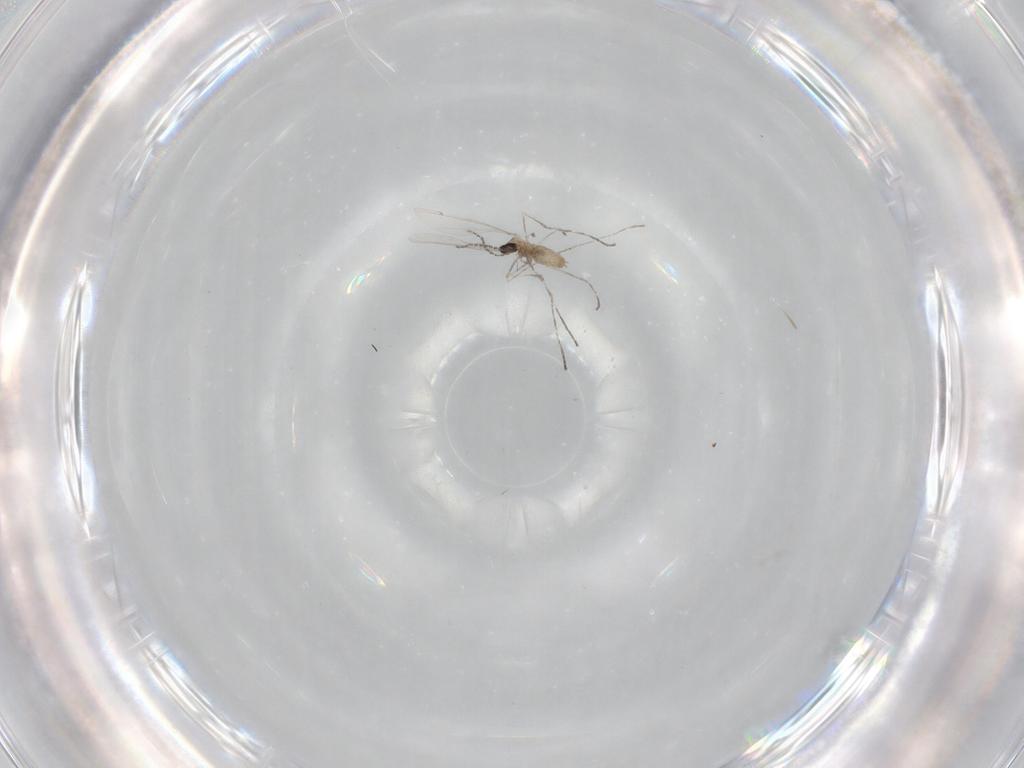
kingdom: Animalia
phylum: Arthropoda
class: Insecta
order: Diptera
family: Cecidomyiidae
